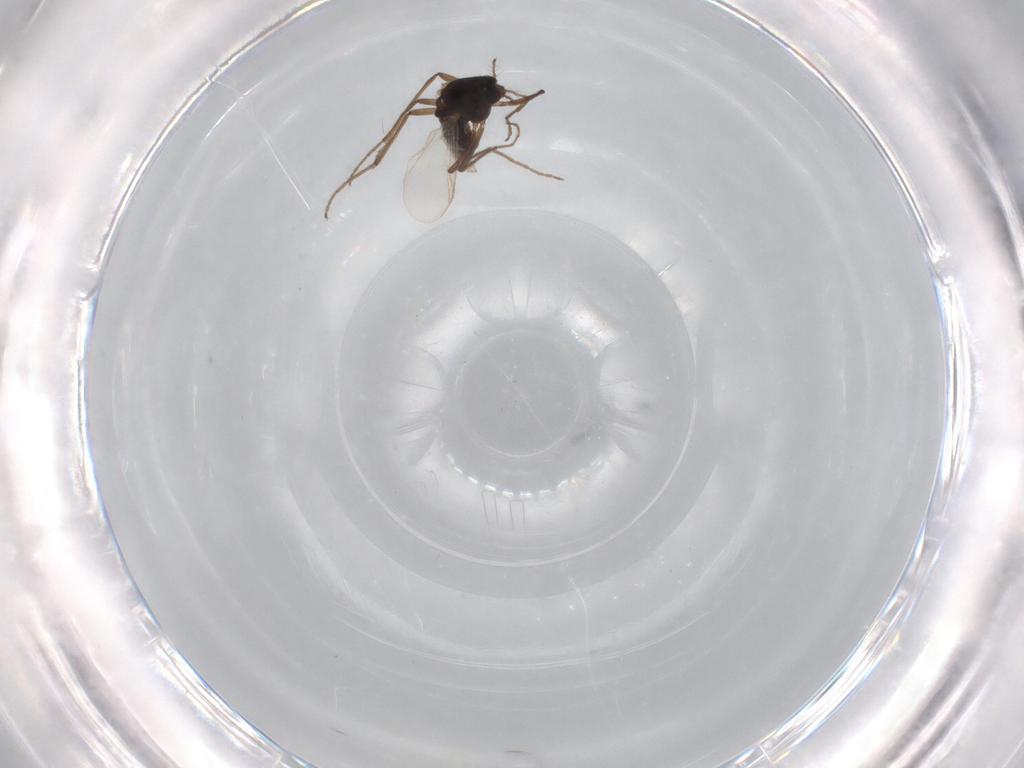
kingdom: Animalia
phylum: Arthropoda
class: Insecta
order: Diptera
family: Chironomidae
